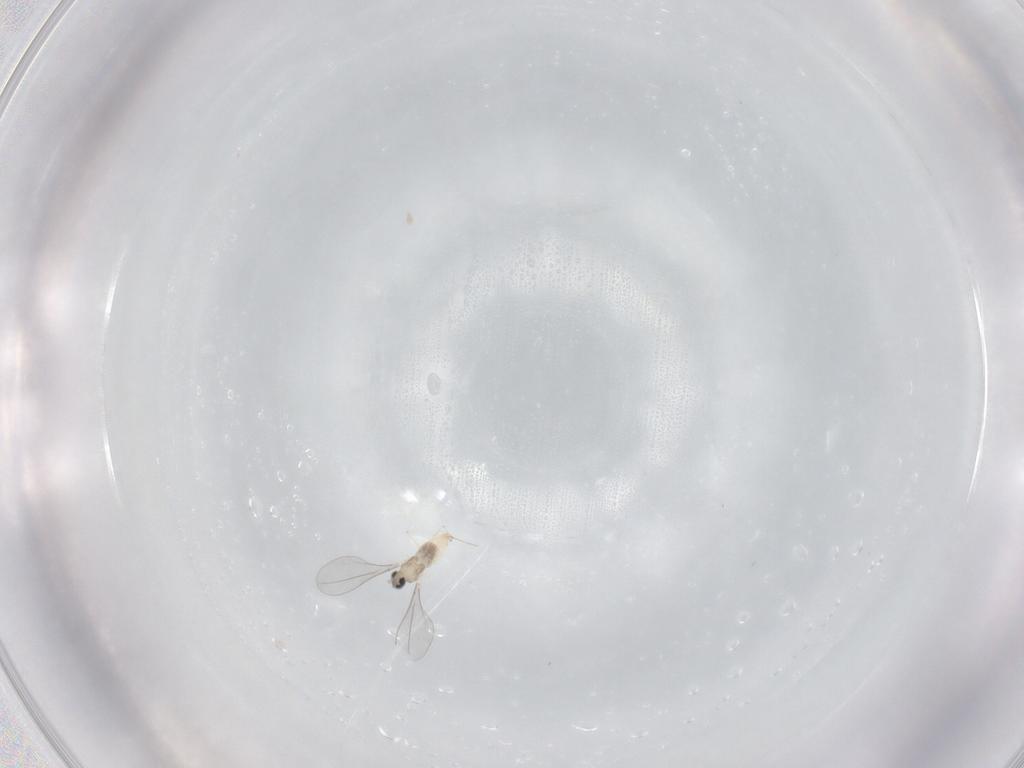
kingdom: Animalia
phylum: Arthropoda
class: Insecta
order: Diptera
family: Cecidomyiidae
